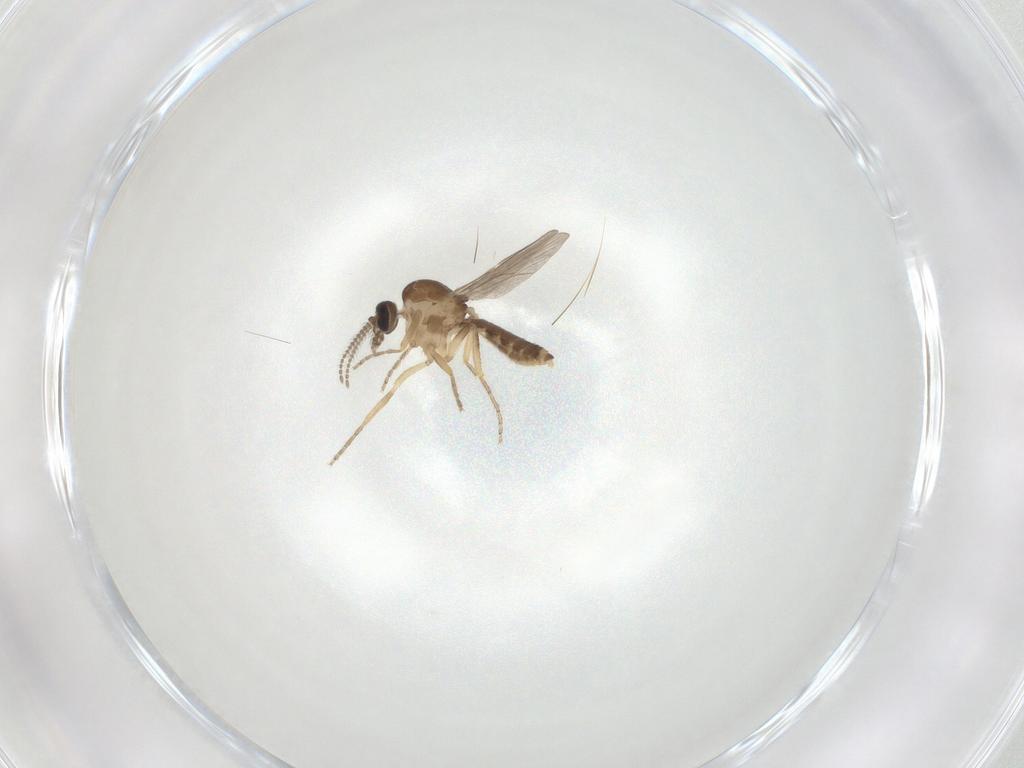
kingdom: Animalia
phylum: Arthropoda
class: Insecta
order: Diptera
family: Ceratopogonidae
